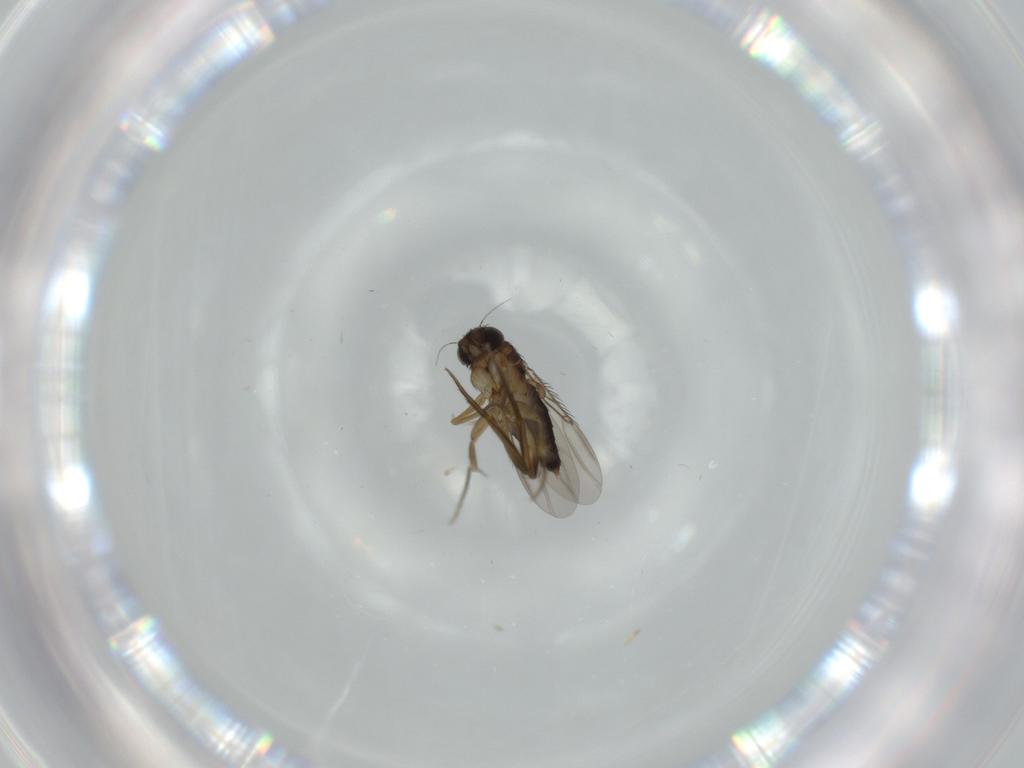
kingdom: Animalia
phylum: Arthropoda
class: Insecta
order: Diptera
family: Phoridae
